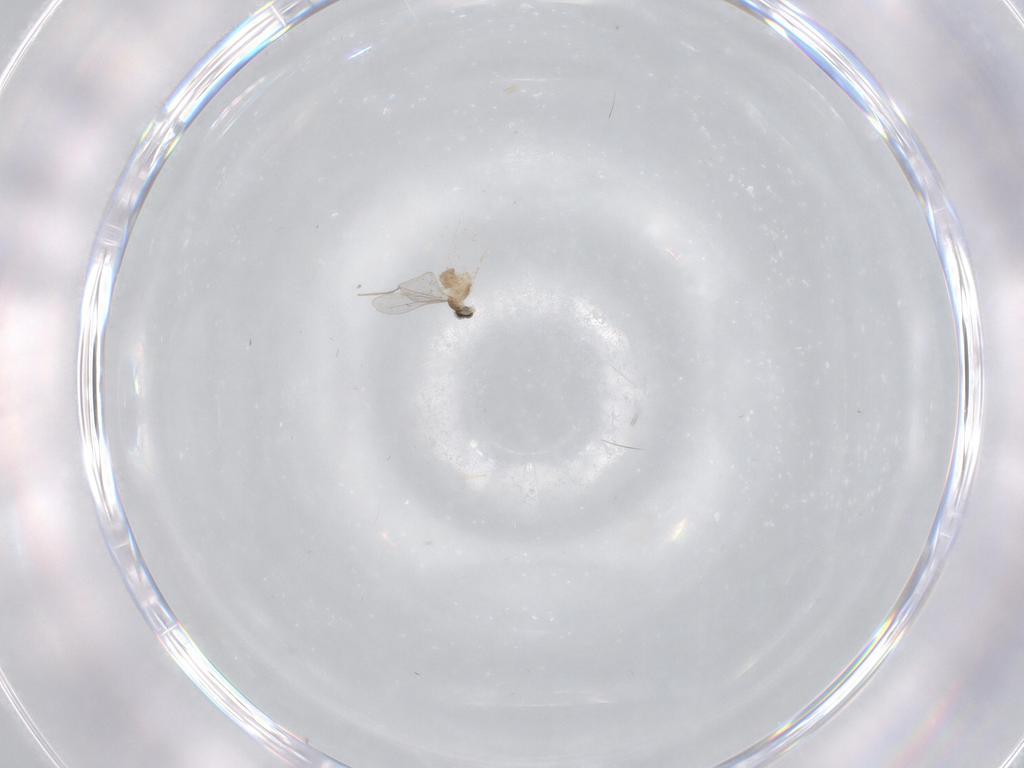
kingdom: Animalia
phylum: Arthropoda
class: Insecta
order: Diptera
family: Cecidomyiidae
